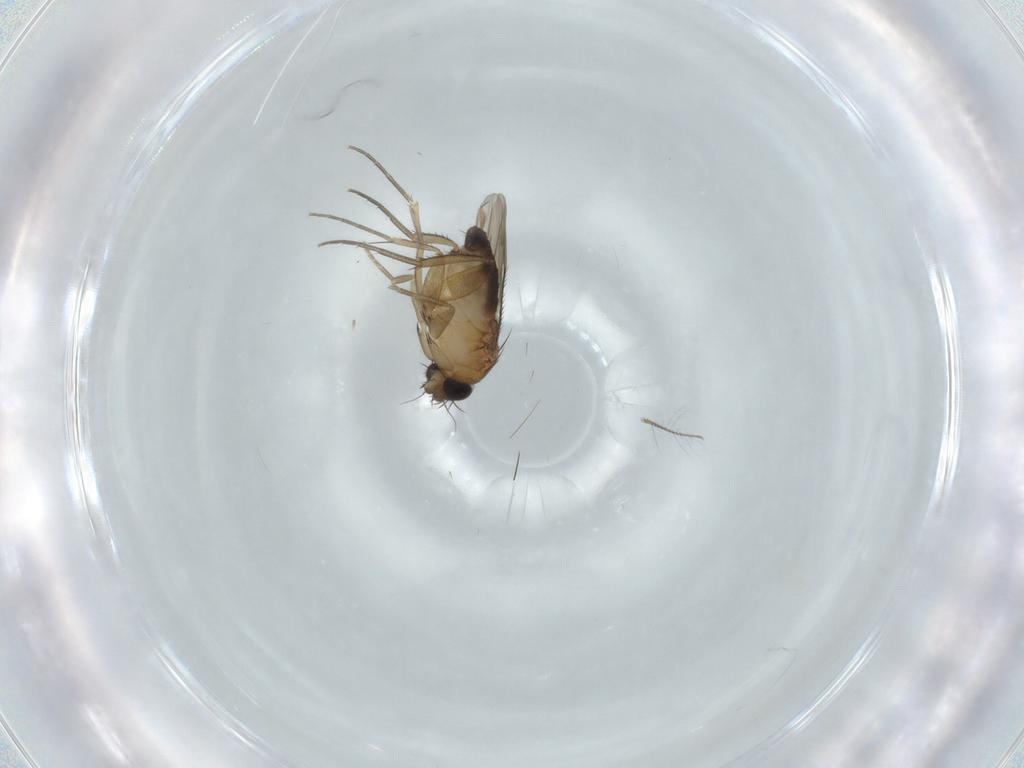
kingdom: Animalia
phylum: Arthropoda
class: Insecta
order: Diptera
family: Phoridae
